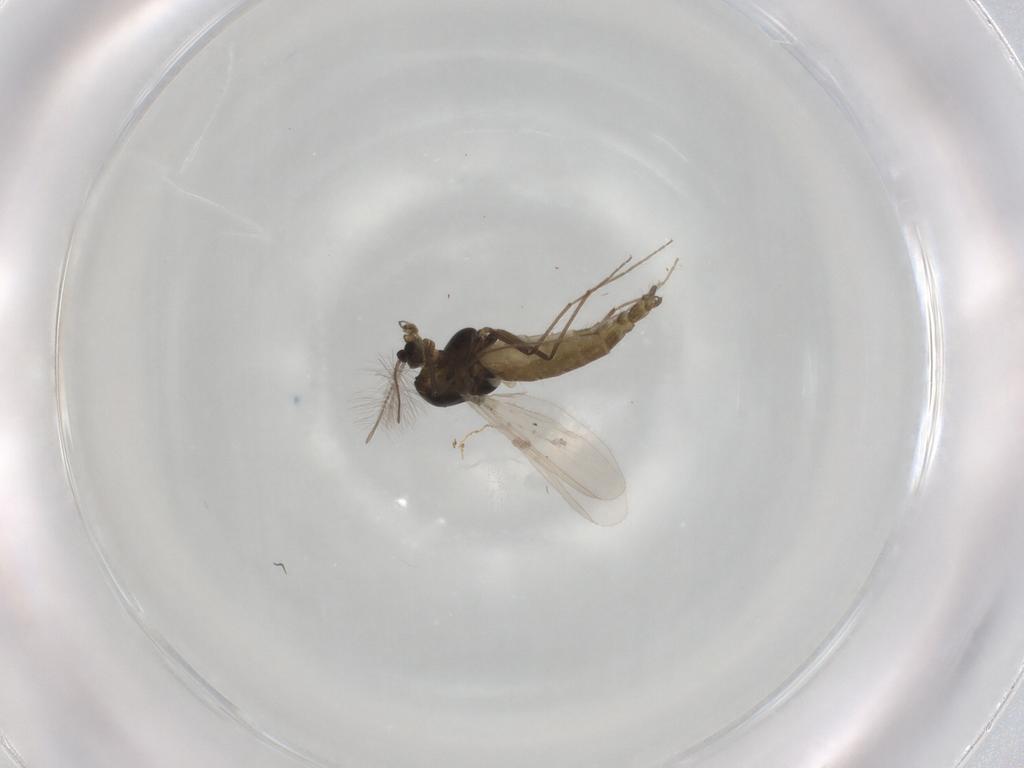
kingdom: Animalia
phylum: Arthropoda
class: Insecta
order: Diptera
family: Chironomidae
